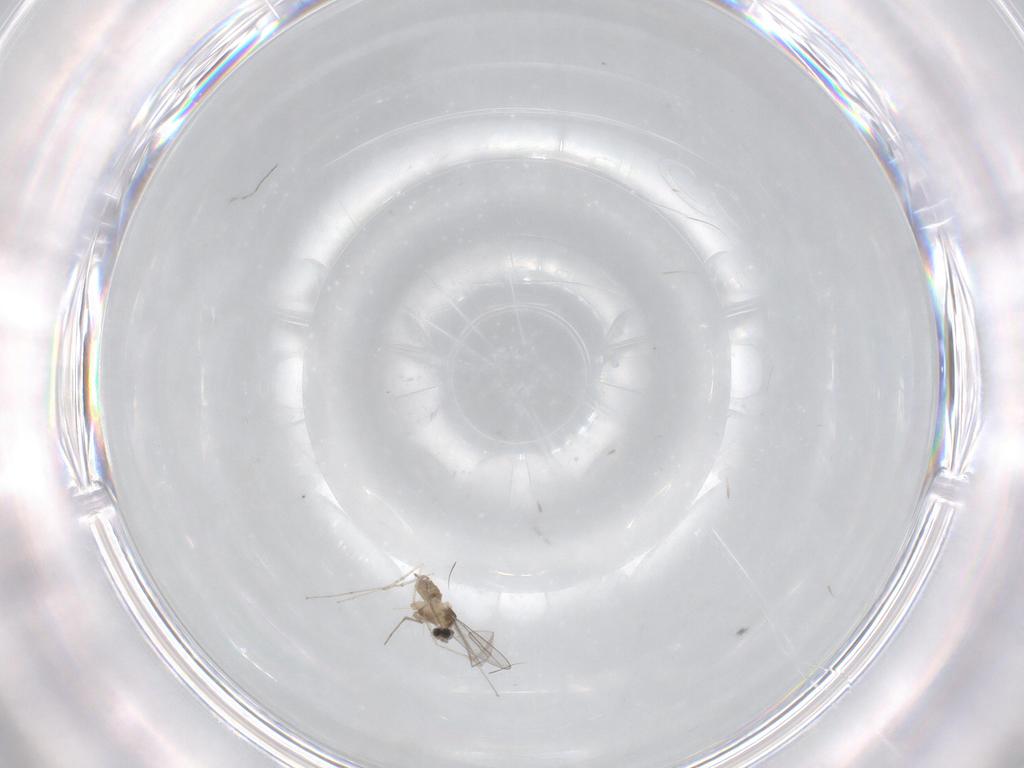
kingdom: Animalia
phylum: Arthropoda
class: Insecta
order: Diptera
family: Cecidomyiidae
